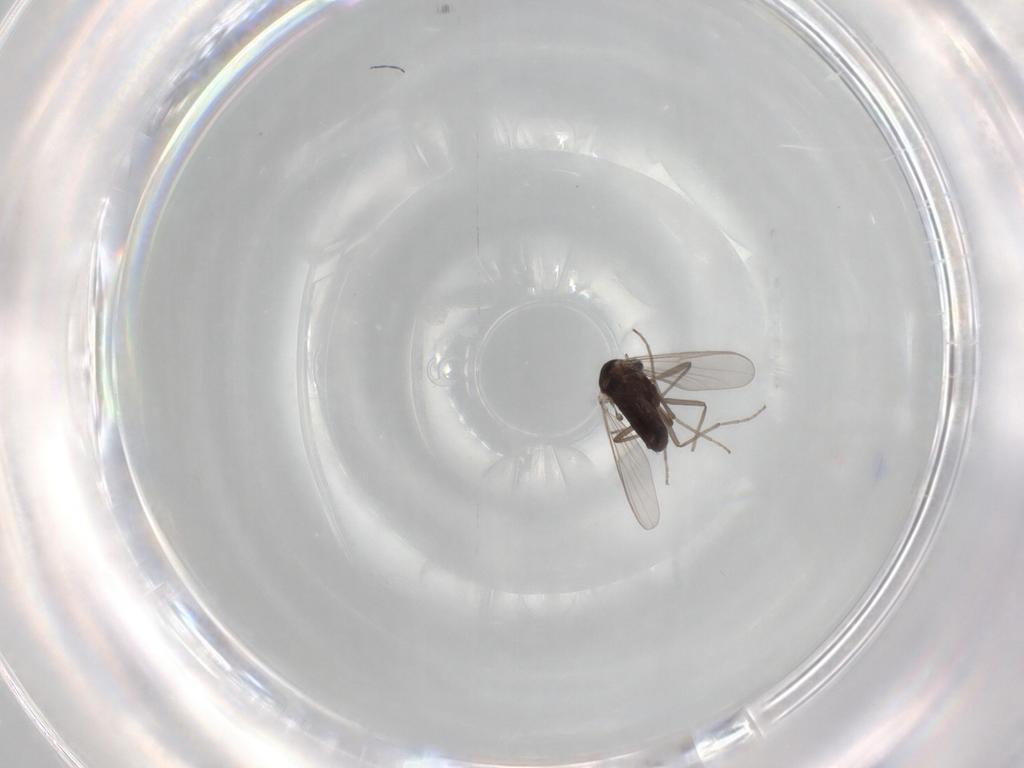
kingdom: Animalia
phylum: Arthropoda
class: Insecta
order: Diptera
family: Chironomidae
